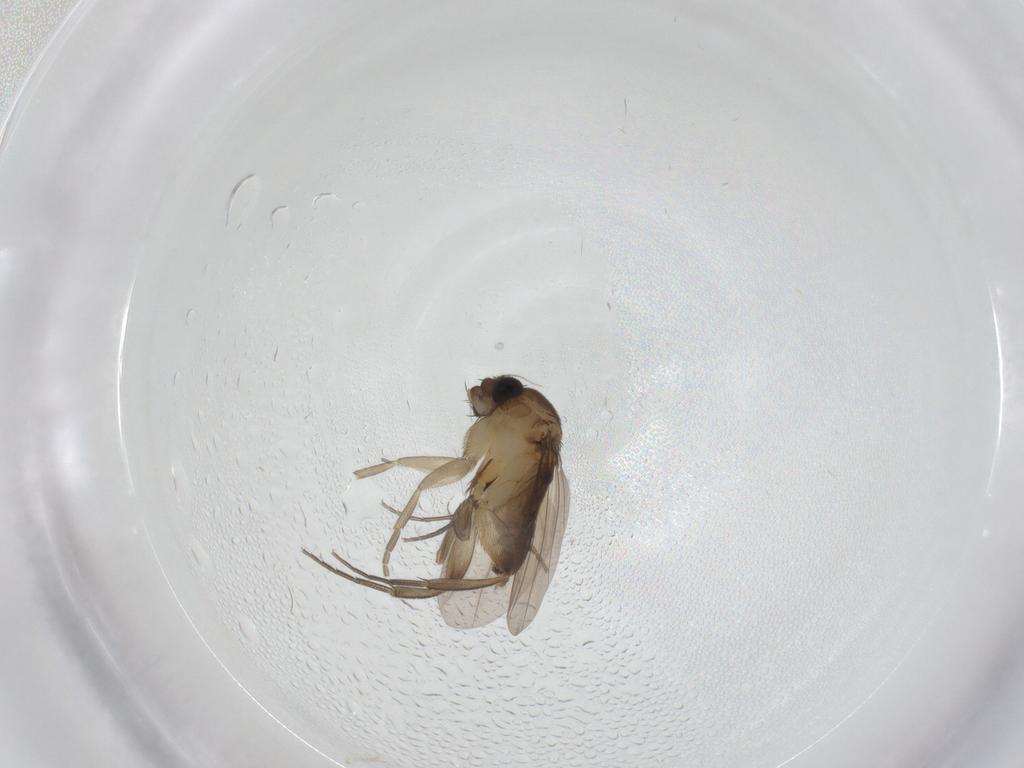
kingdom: Animalia
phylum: Arthropoda
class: Insecta
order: Diptera
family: Phoridae
